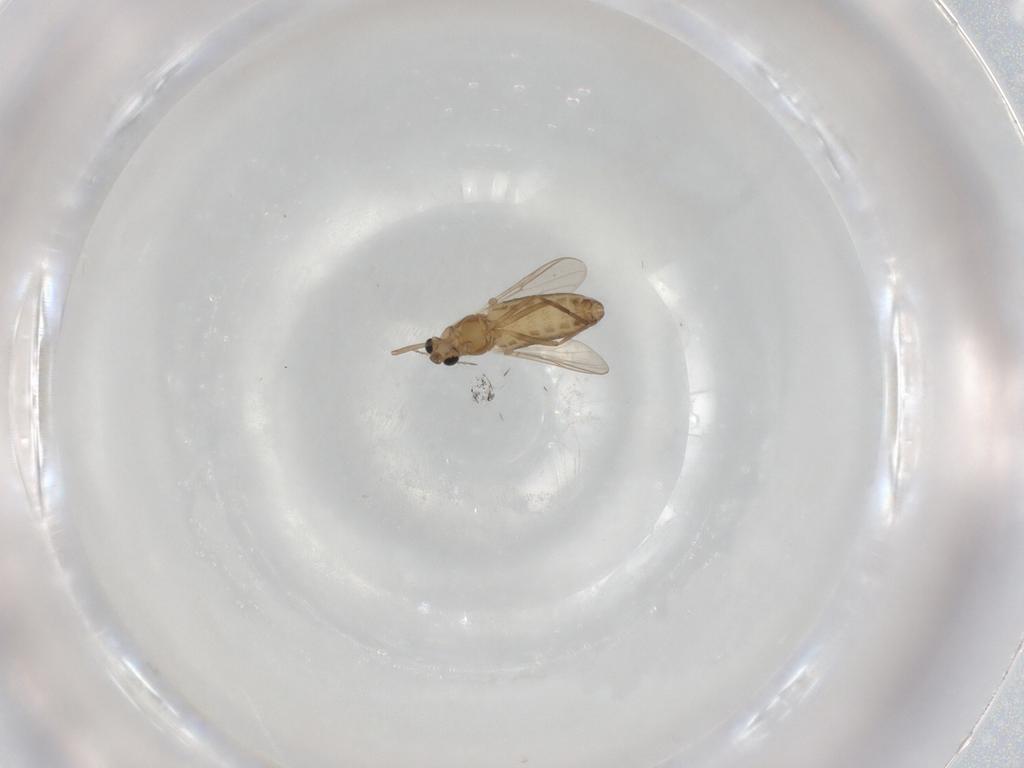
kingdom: Animalia
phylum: Arthropoda
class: Insecta
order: Diptera
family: Chironomidae
